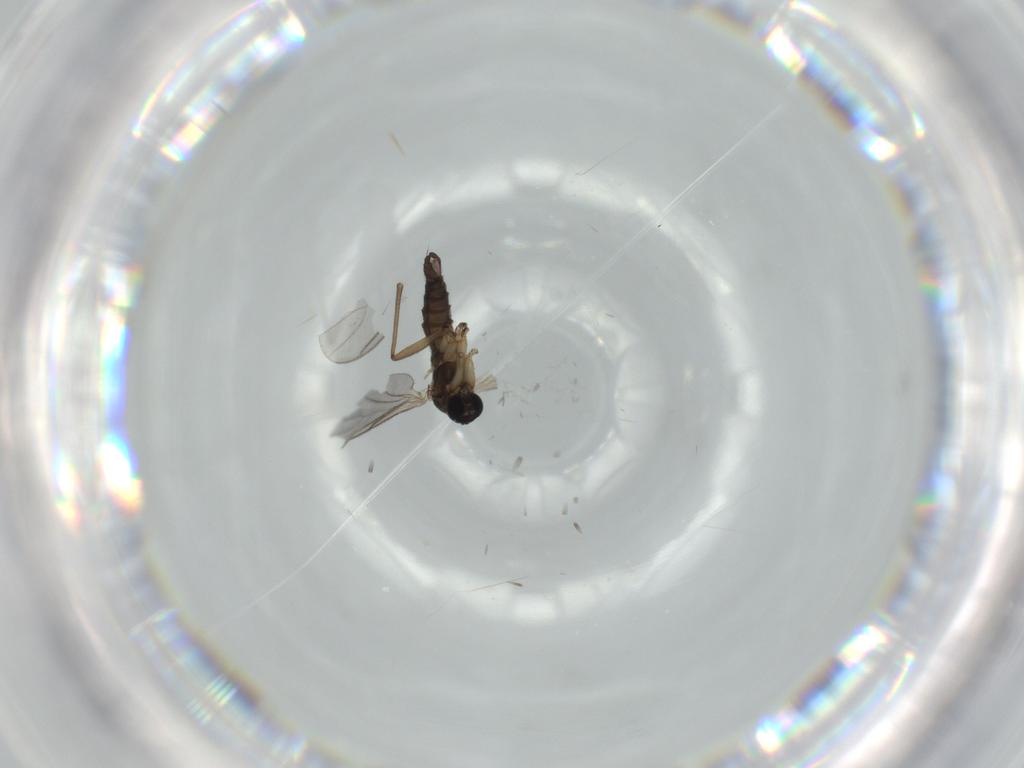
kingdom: Animalia
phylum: Arthropoda
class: Insecta
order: Diptera
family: Sciaridae
